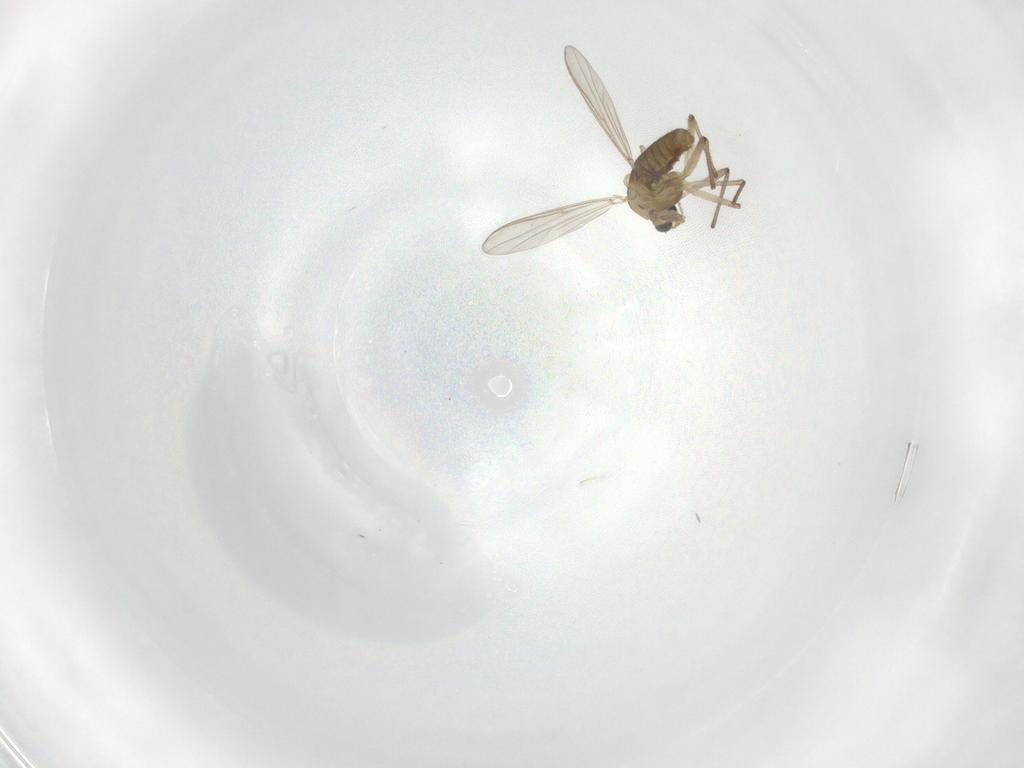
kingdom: Animalia
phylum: Arthropoda
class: Insecta
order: Diptera
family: Chironomidae
